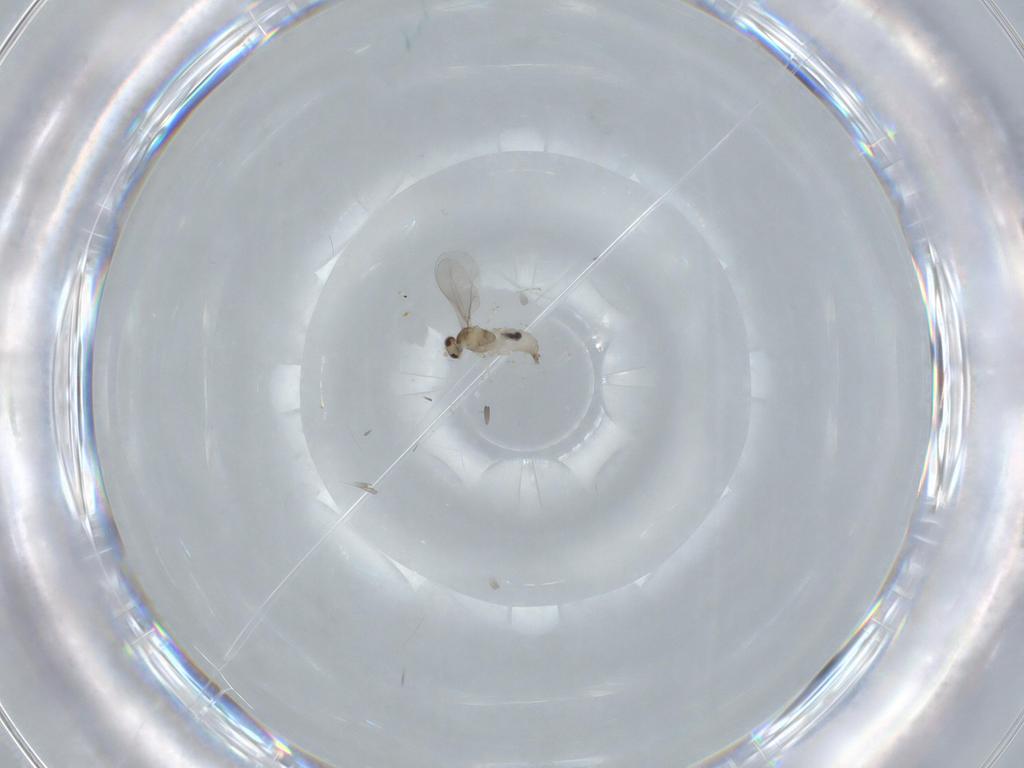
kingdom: Animalia
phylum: Arthropoda
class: Insecta
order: Diptera
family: Cecidomyiidae
